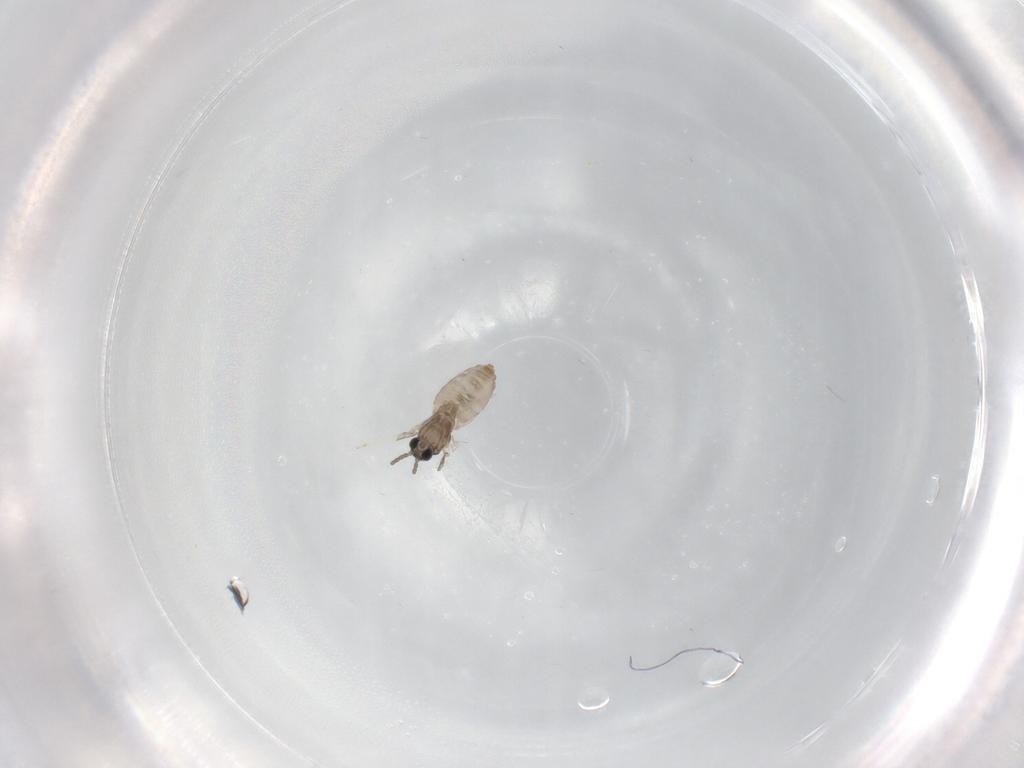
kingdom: Animalia
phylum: Arthropoda
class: Insecta
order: Diptera
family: Cecidomyiidae
